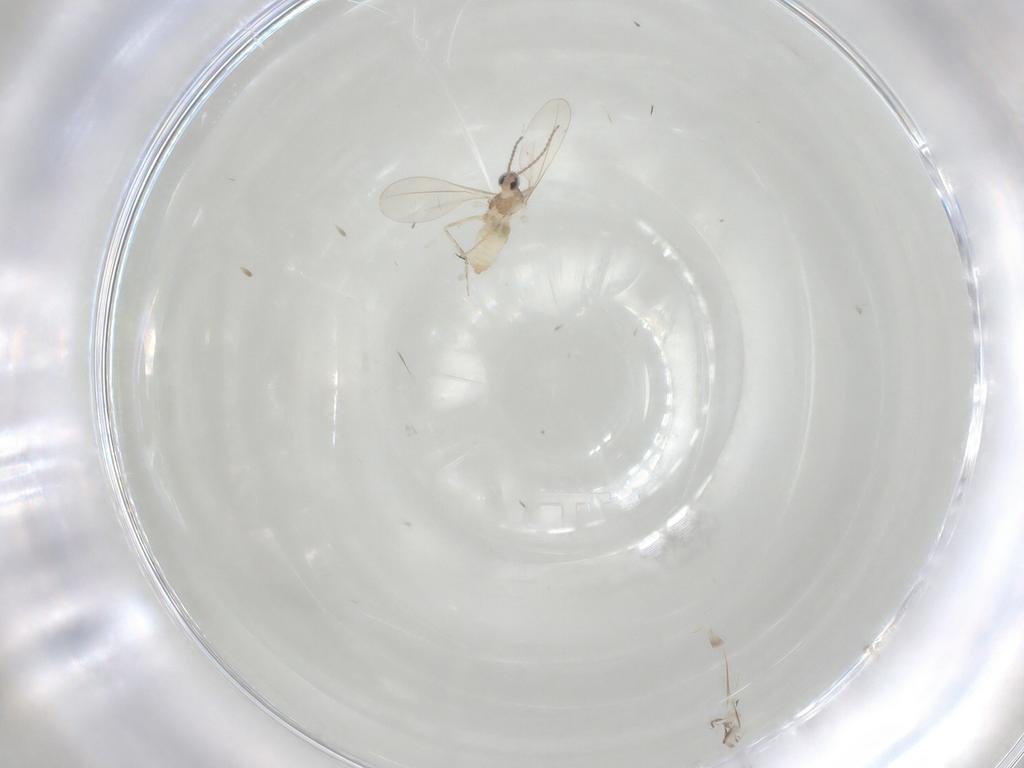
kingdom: Animalia
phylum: Arthropoda
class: Insecta
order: Diptera
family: Cecidomyiidae
